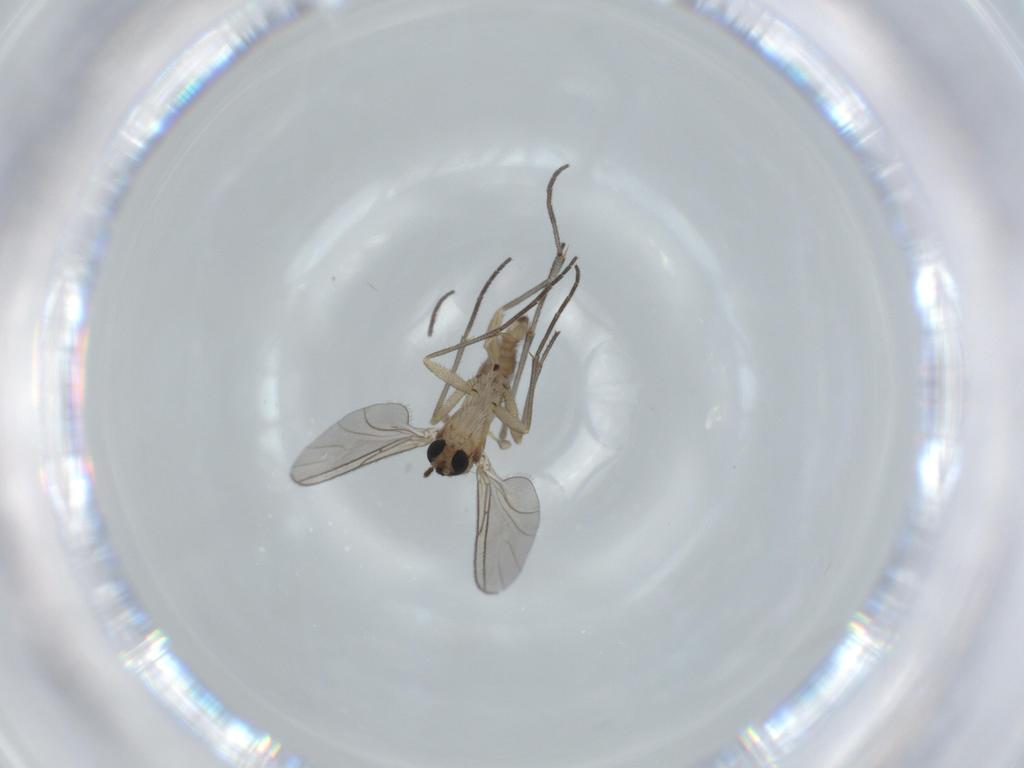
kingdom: Animalia
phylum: Arthropoda
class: Insecta
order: Diptera
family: Sciaridae
